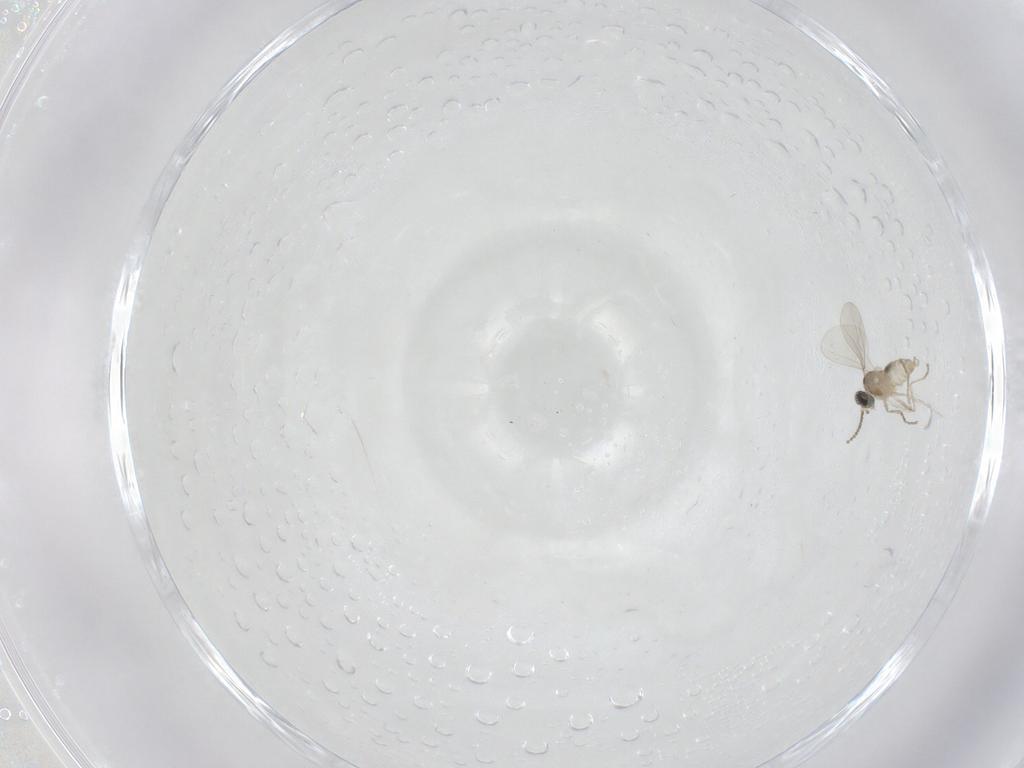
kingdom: Animalia
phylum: Arthropoda
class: Insecta
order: Diptera
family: Cecidomyiidae
